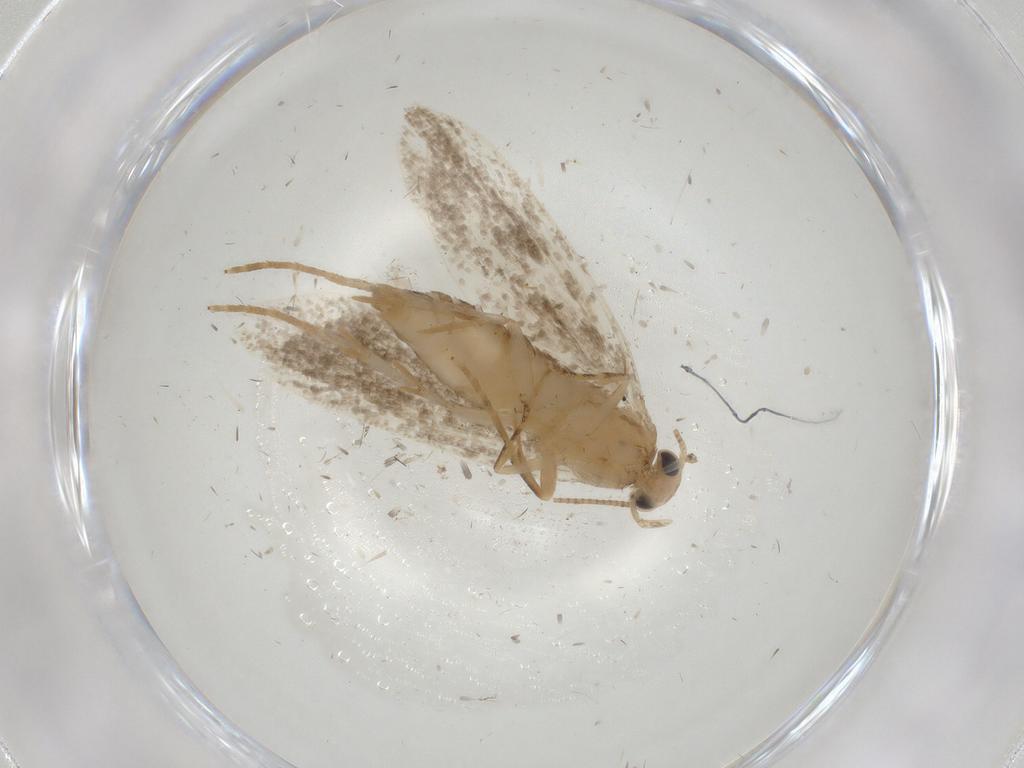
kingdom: Animalia
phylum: Arthropoda
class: Insecta
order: Lepidoptera
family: Tineidae
